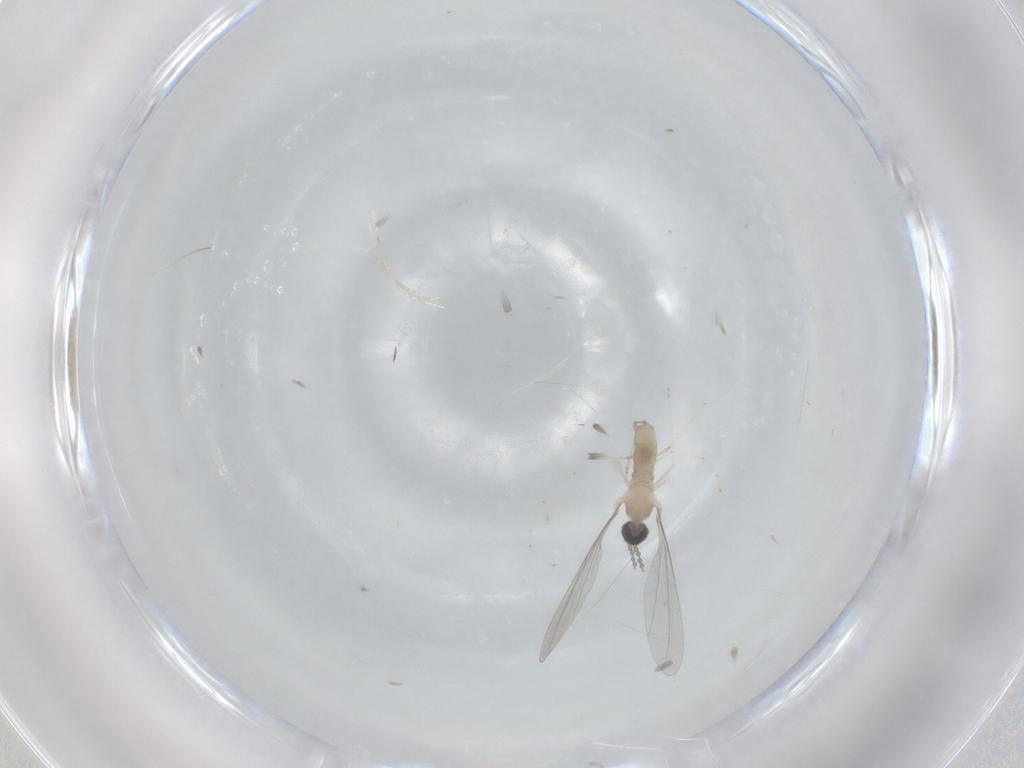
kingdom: Animalia
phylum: Arthropoda
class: Insecta
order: Diptera
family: Cecidomyiidae
